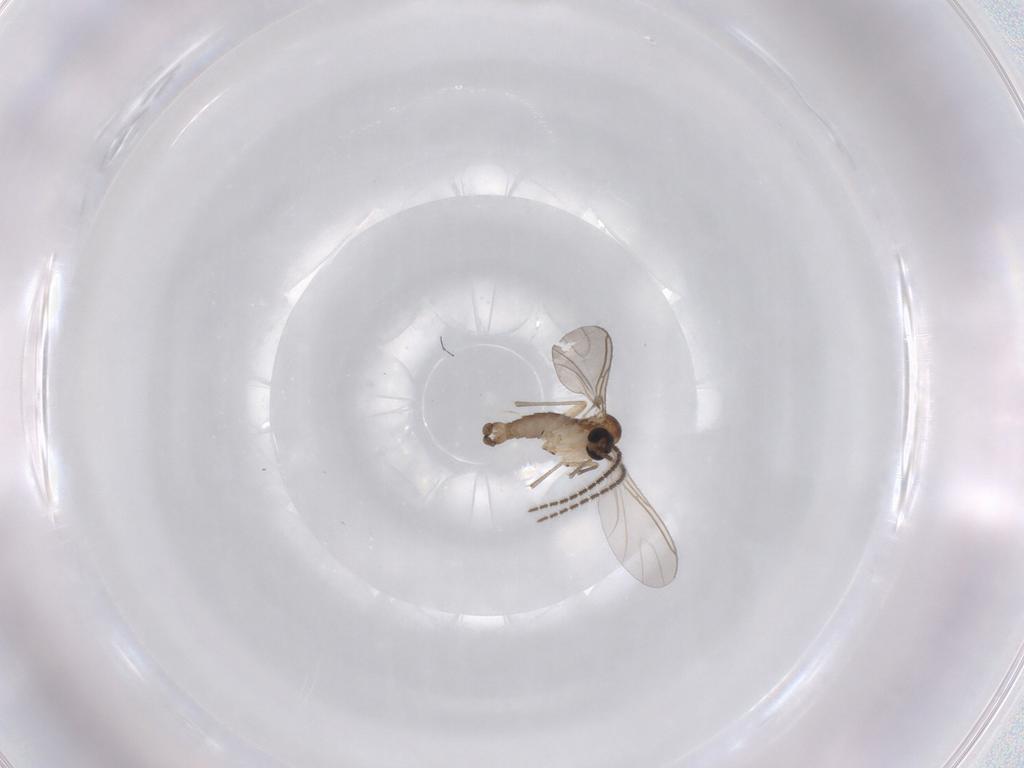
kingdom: Animalia
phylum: Arthropoda
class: Insecta
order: Diptera
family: Sciaridae
